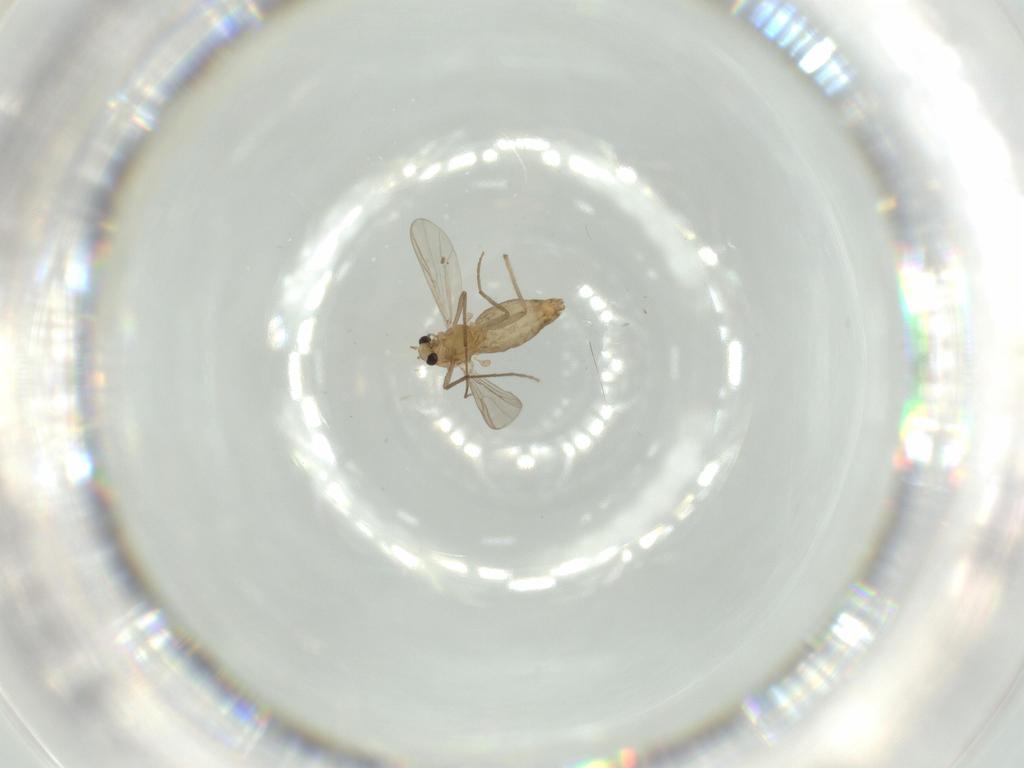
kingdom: Animalia
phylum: Arthropoda
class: Insecta
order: Diptera
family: Chironomidae
